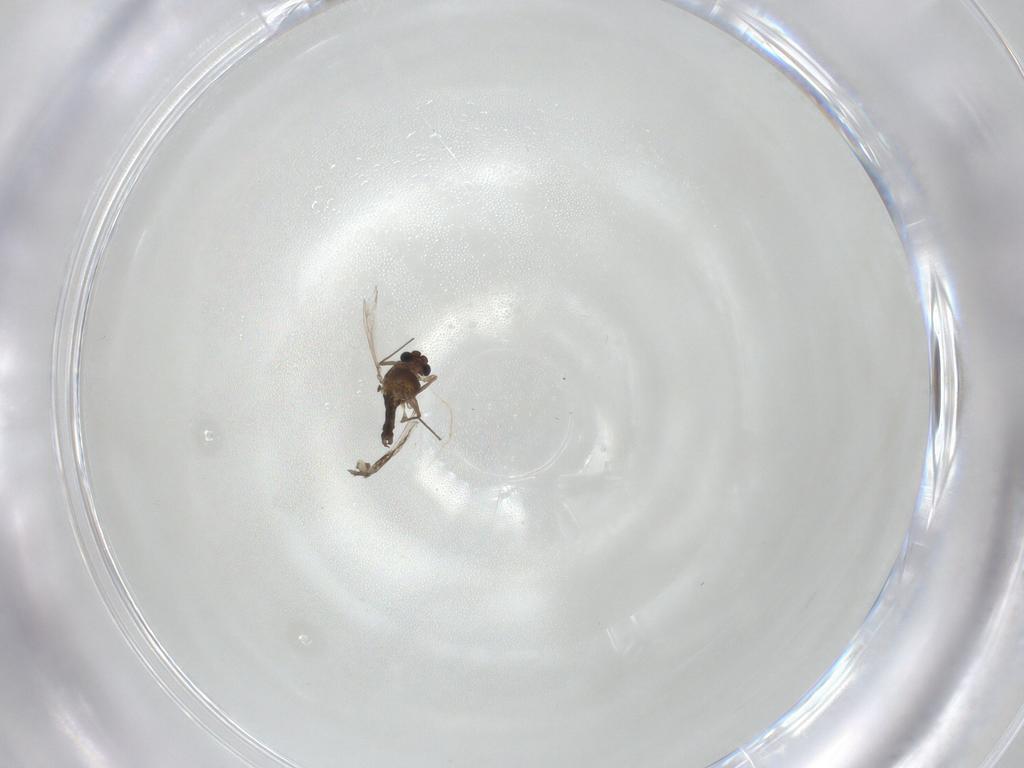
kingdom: Animalia
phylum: Arthropoda
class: Insecta
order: Diptera
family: Chironomidae
